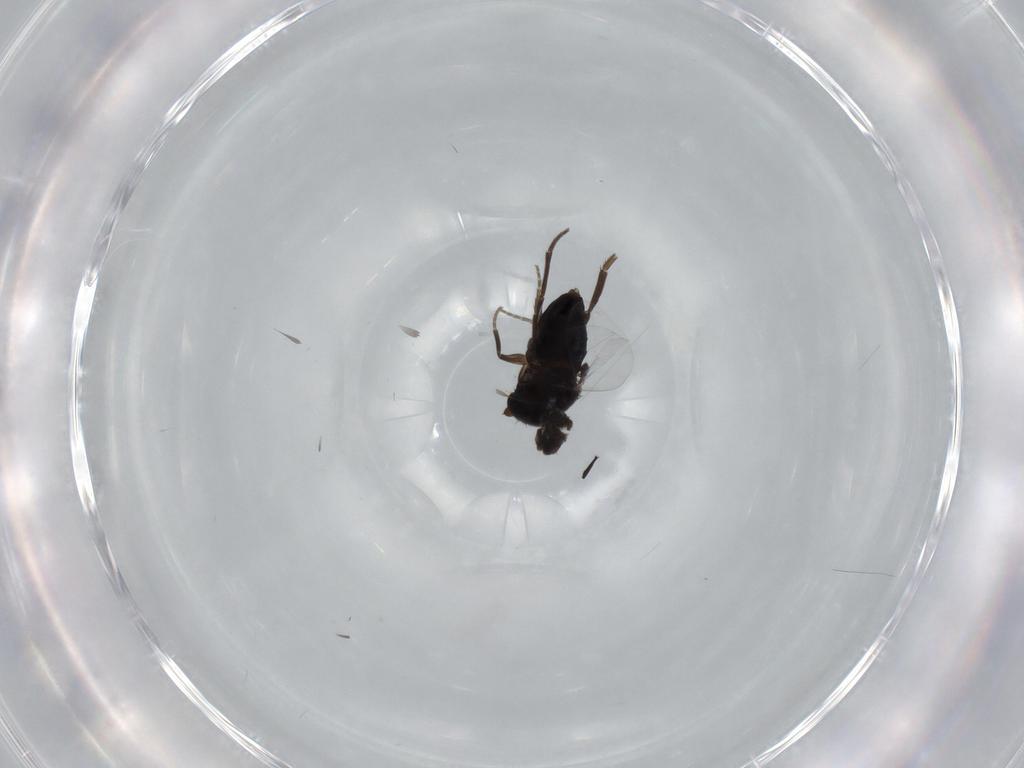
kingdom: Animalia
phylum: Arthropoda
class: Insecta
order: Diptera
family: Phoridae
